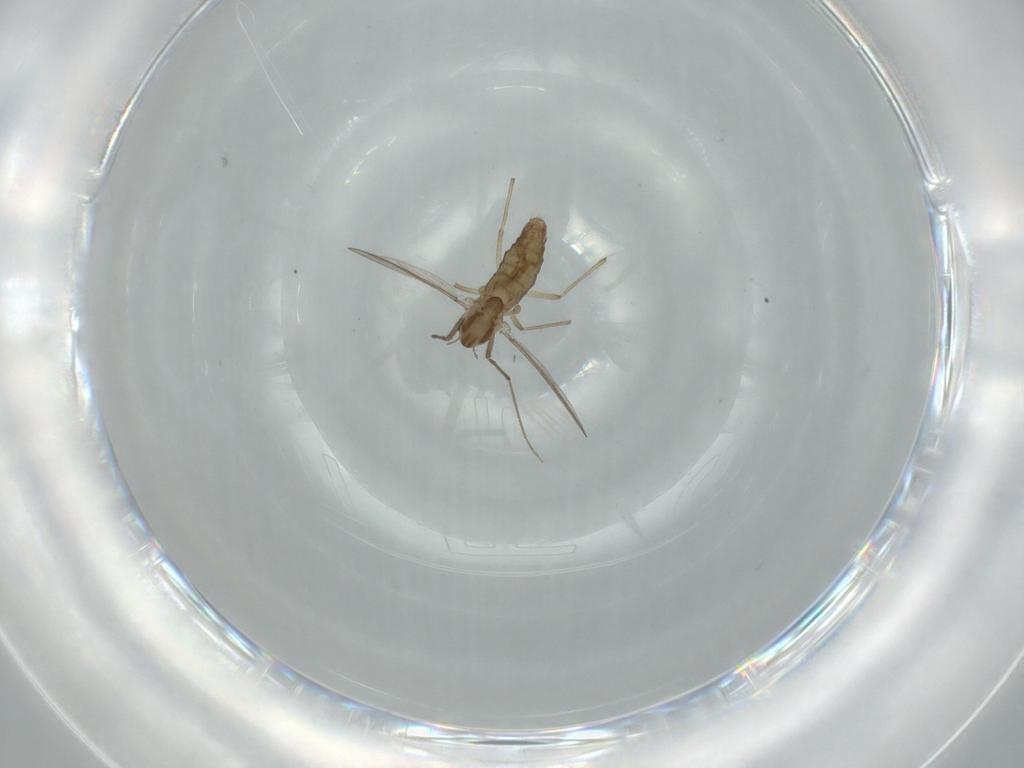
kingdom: Animalia
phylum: Arthropoda
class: Insecta
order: Diptera
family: Chironomidae
